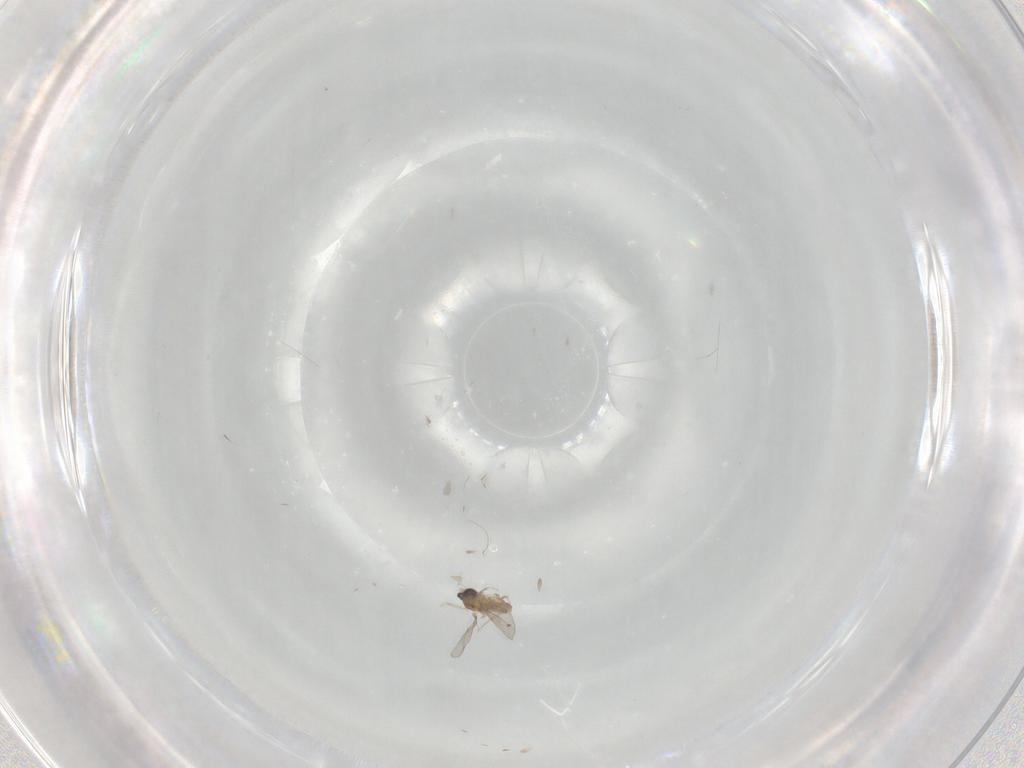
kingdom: Animalia
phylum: Arthropoda
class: Insecta
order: Diptera
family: Cecidomyiidae
